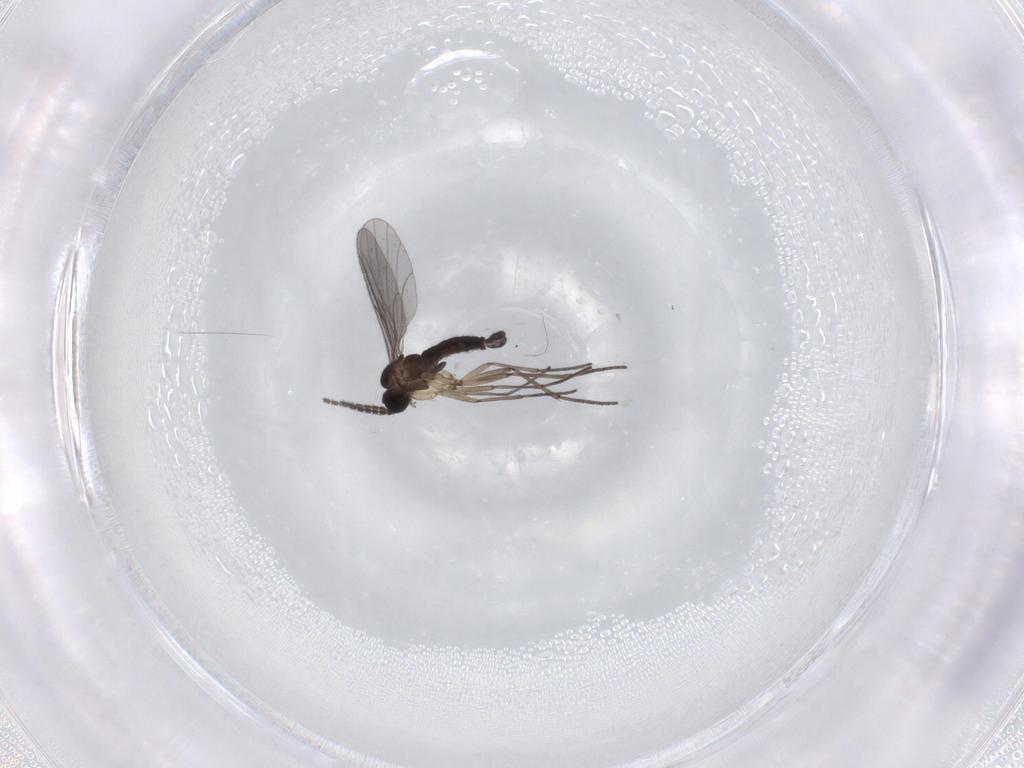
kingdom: Animalia
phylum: Arthropoda
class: Insecta
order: Diptera
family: Sciaridae
